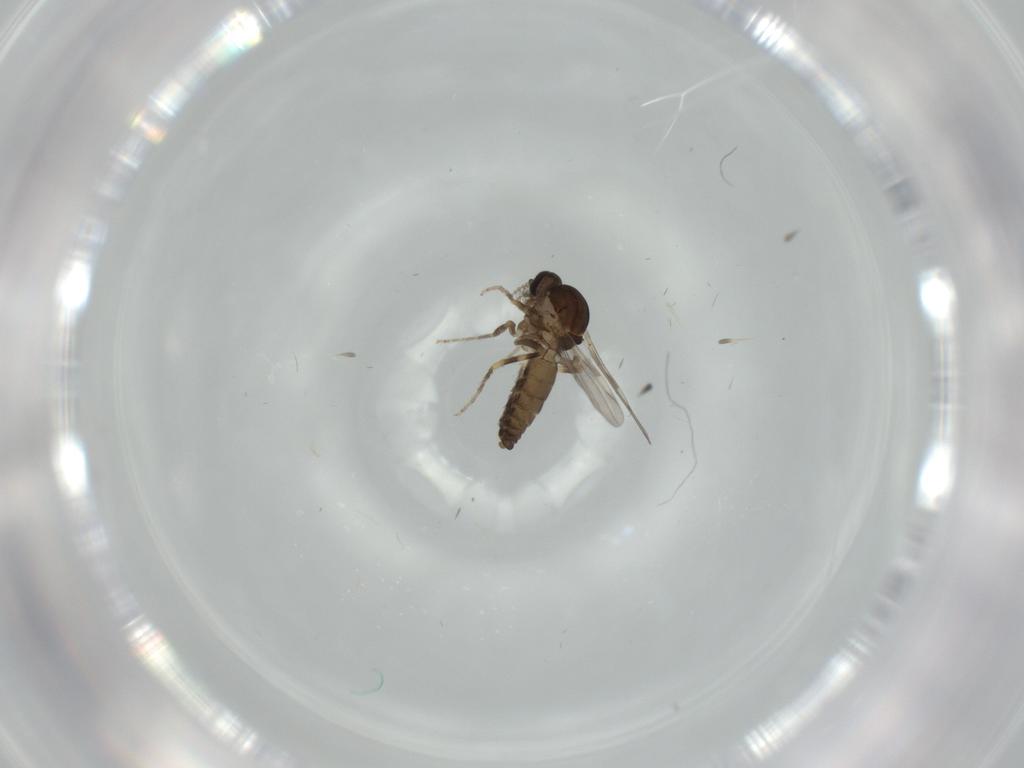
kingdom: Animalia
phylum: Arthropoda
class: Insecta
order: Diptera
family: Ceratopogonidae
